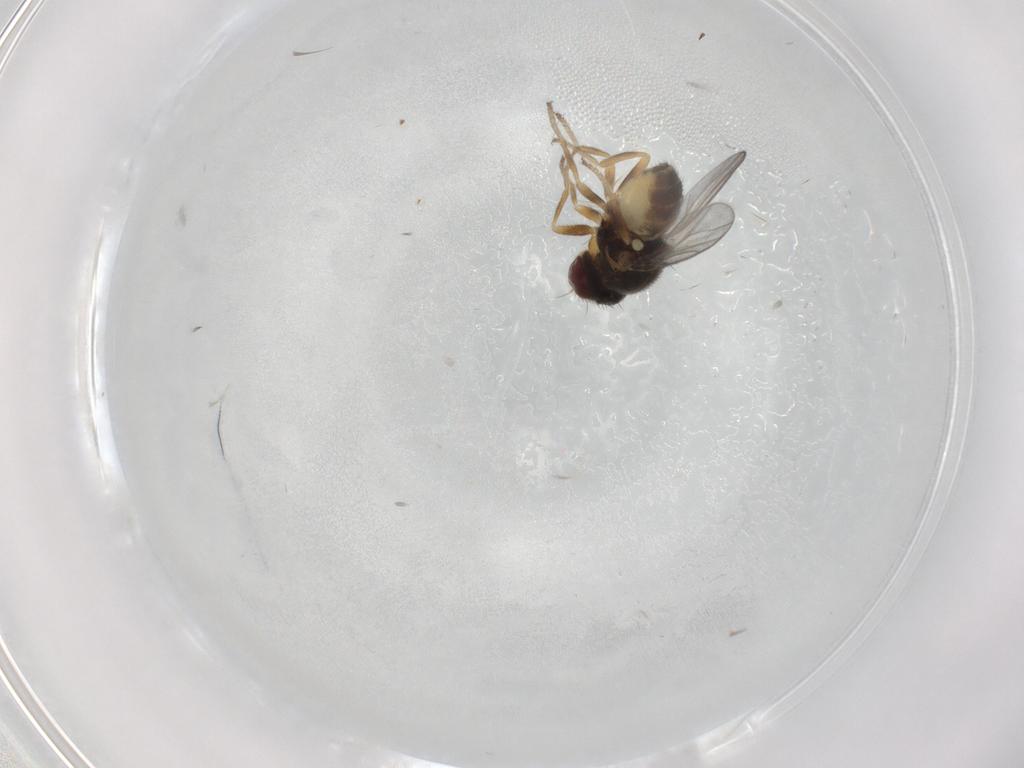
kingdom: Animalia
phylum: Arthropoda
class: Insecta
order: Diptera
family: Chloropidae
